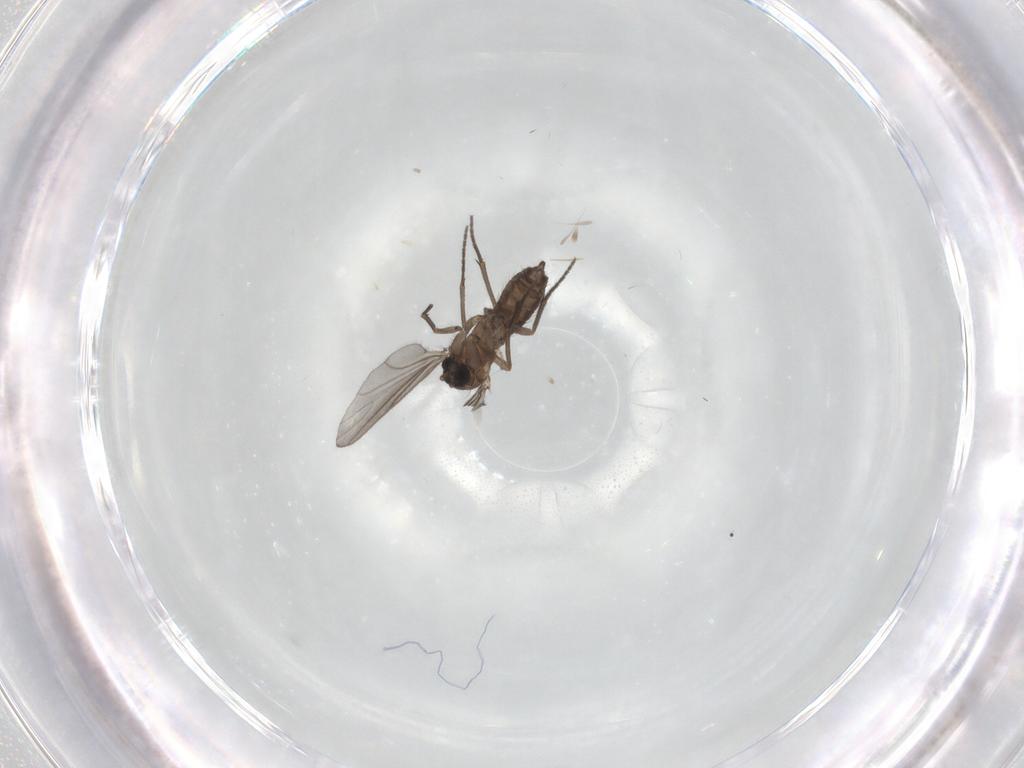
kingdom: Animalia
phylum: Arthropoda
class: Insecta
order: Diptera
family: Sciaridae
